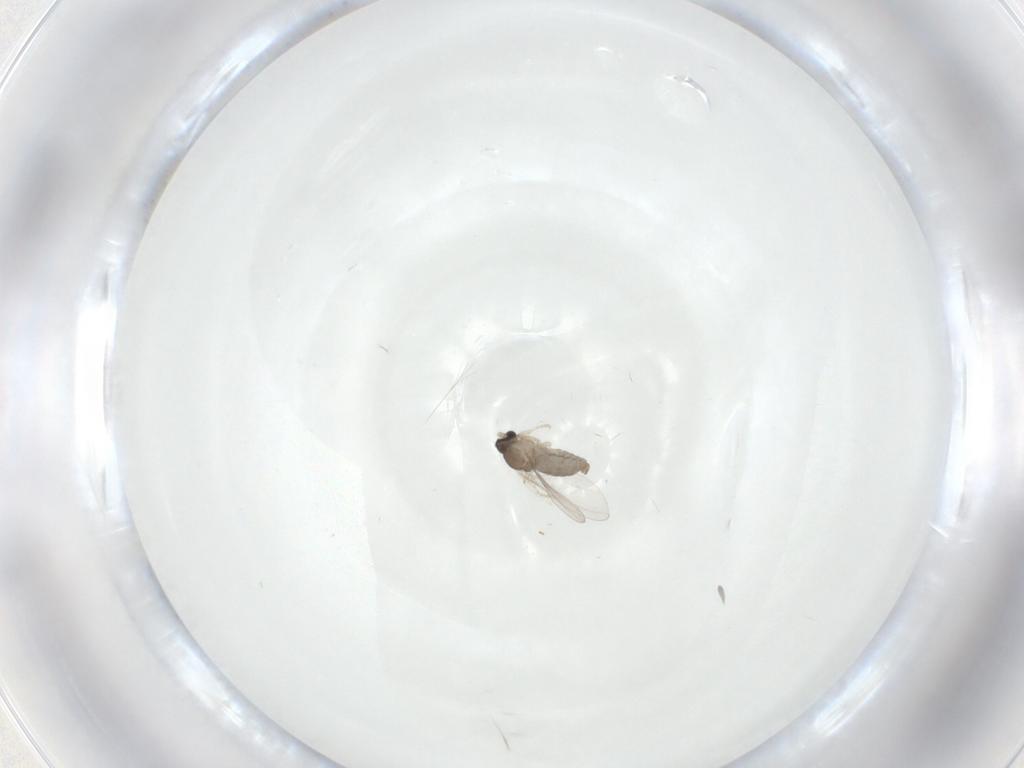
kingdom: Animalia
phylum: Arthropoda
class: Insecta
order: Diptera
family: Cecidomyiidae
